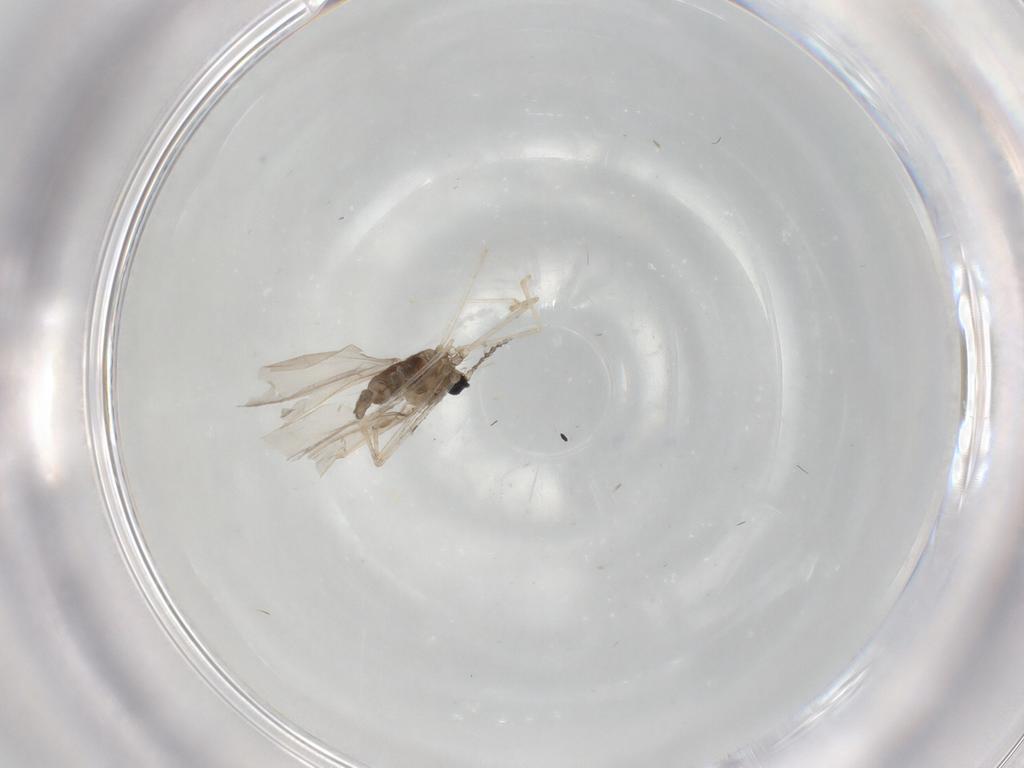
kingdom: Animalia
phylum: Arthropoda
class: Insecta
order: Diptera
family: Cecidomyiidae
